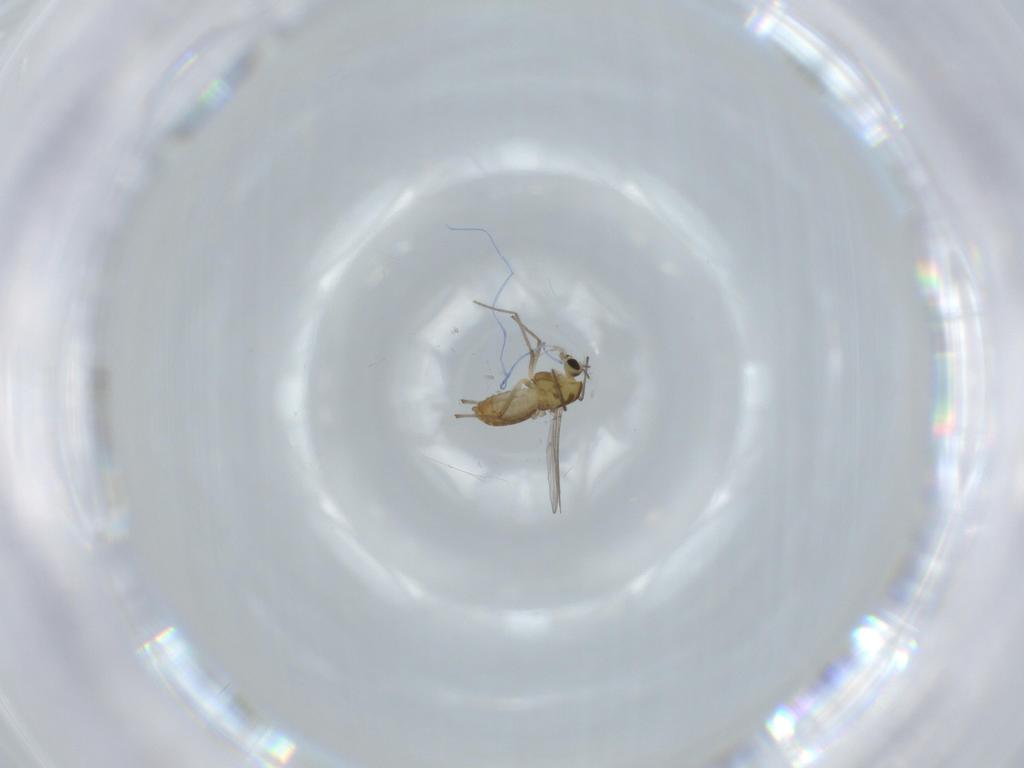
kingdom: Animalia
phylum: Arthropoda
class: Insecta
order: Diptera
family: Chironomidae
